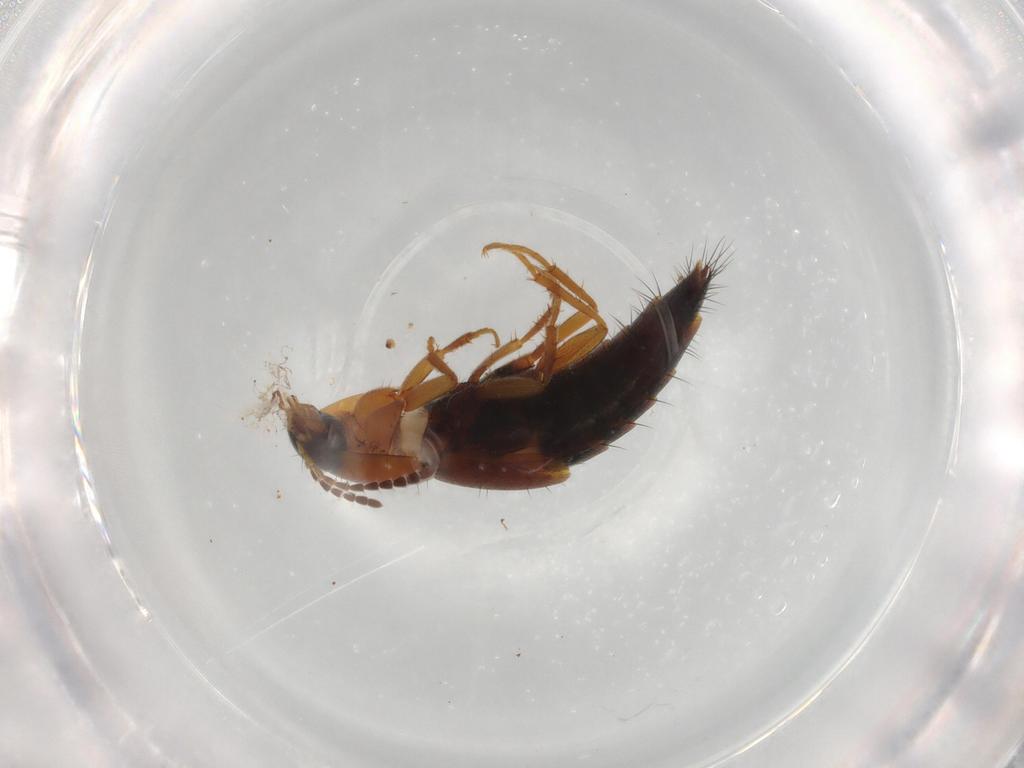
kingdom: Animalia
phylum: Arthropoda
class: Insecta
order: Coleoptera
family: Staphylinidae
